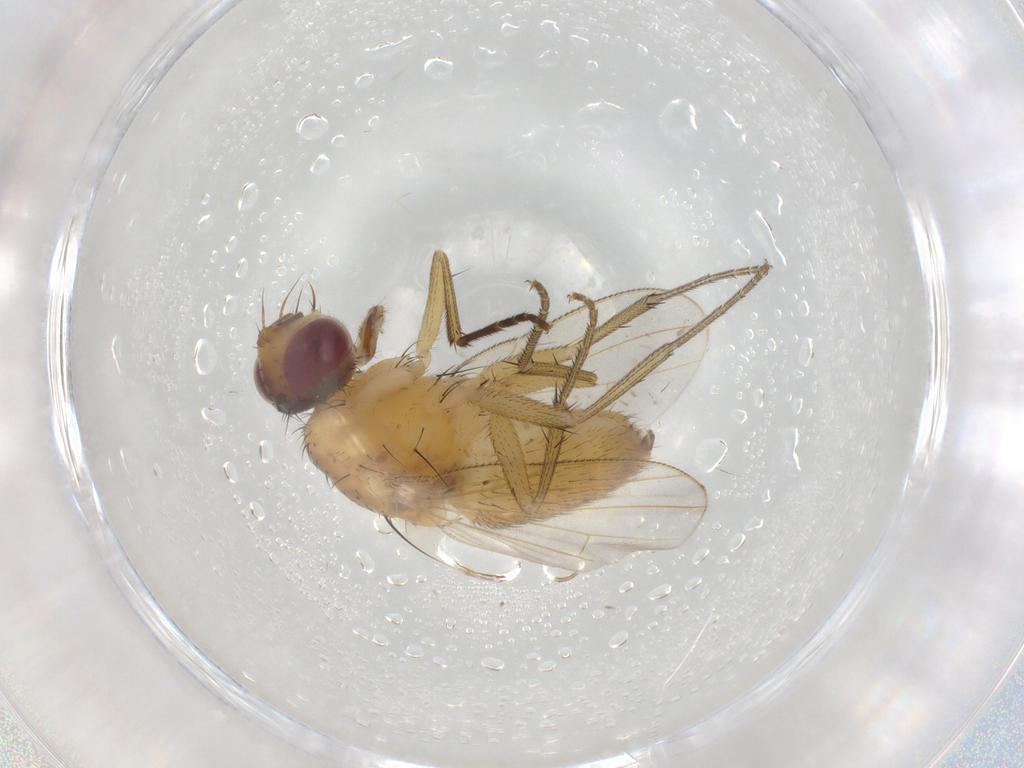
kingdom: Animalia
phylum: Arthropoda
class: Insecta
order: Diptera
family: Muscidae
